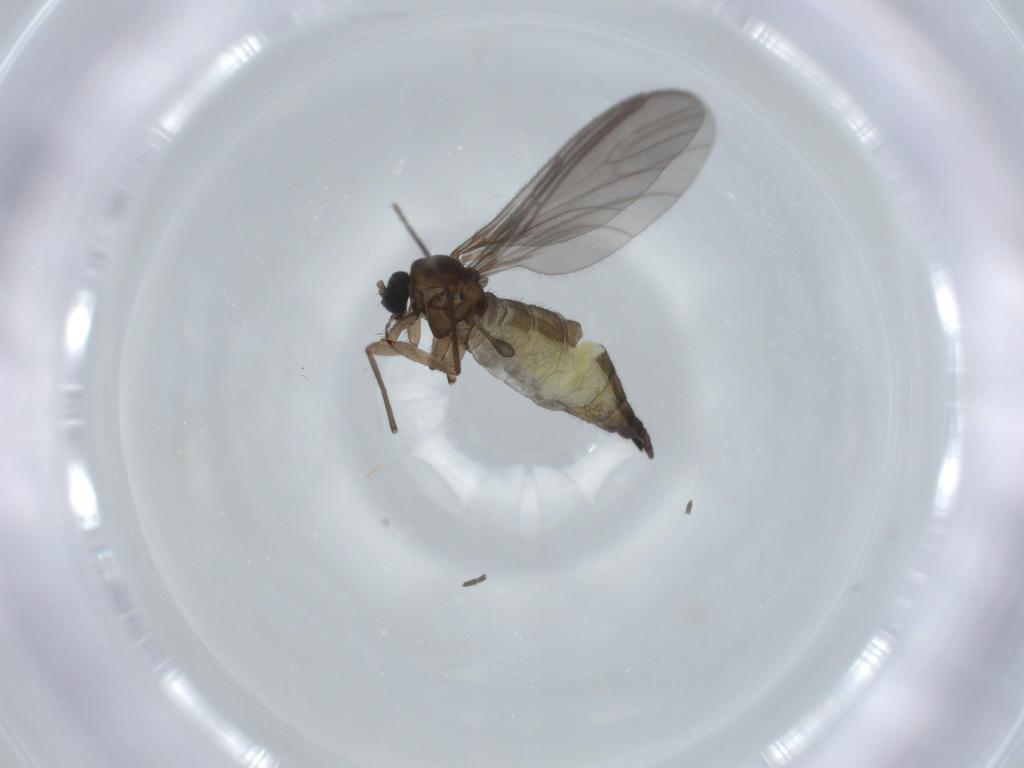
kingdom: Animalia
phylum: Arthropoda
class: Insecta
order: Diptera
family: Sciaridae
